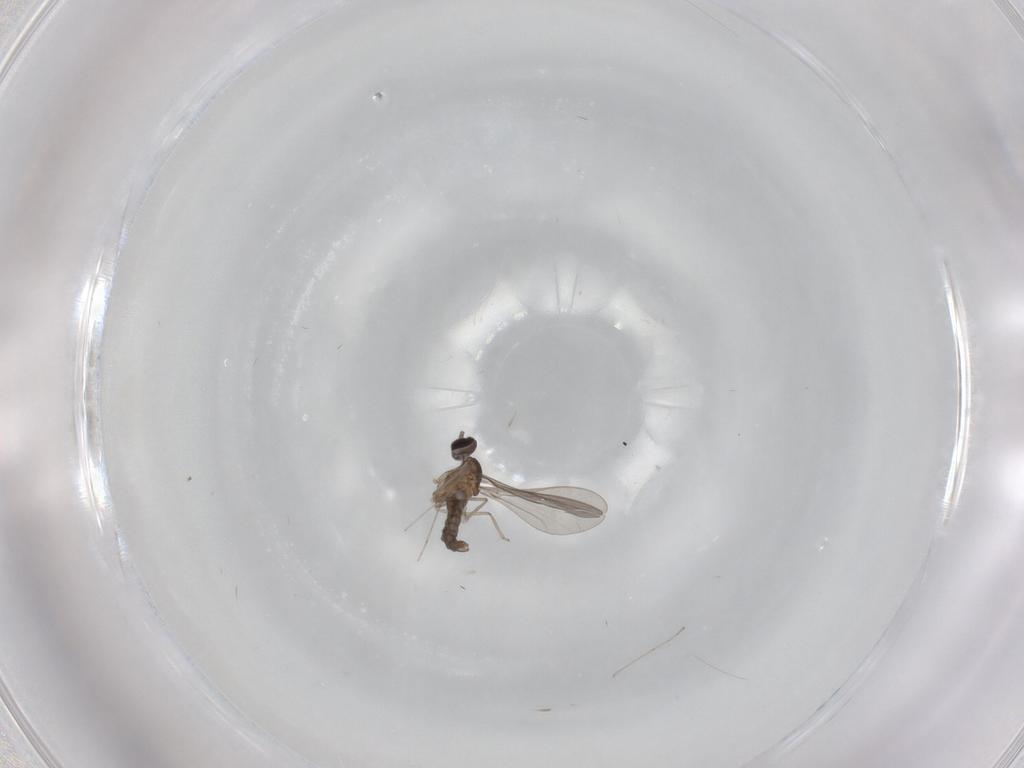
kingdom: Animalia
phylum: Arthropoda
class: Insecta
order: Diptera
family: Cecidomyiidae
